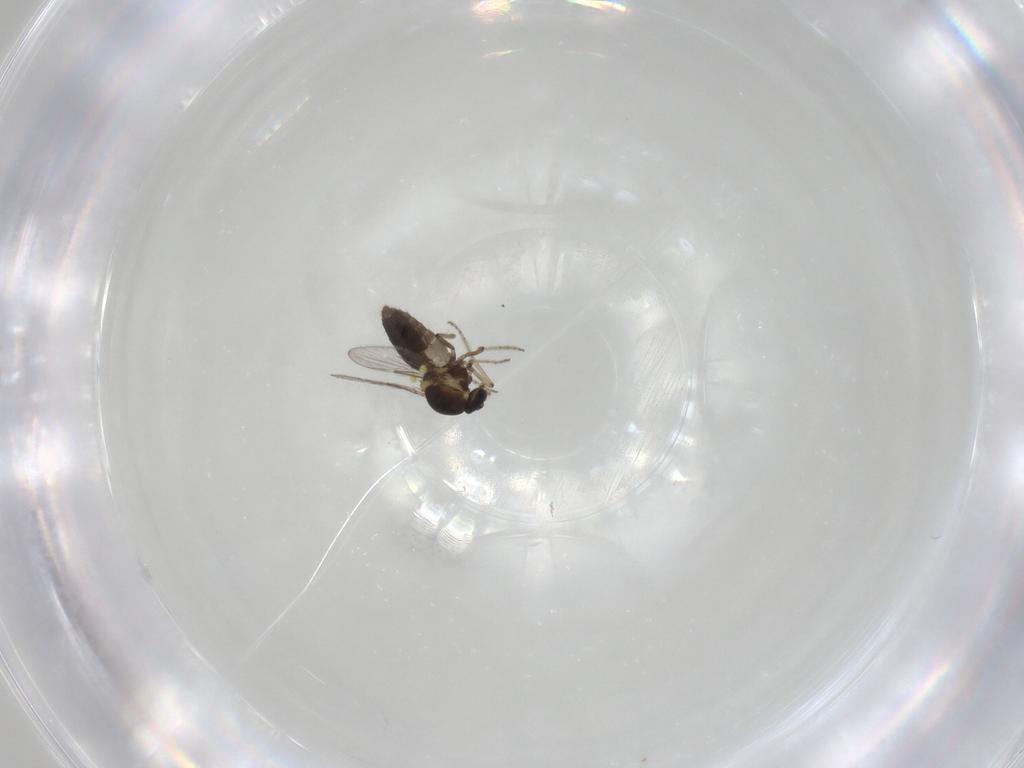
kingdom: Animalia
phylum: Arthropoda
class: Insecta
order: Diptera
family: Ceratopogonidae
